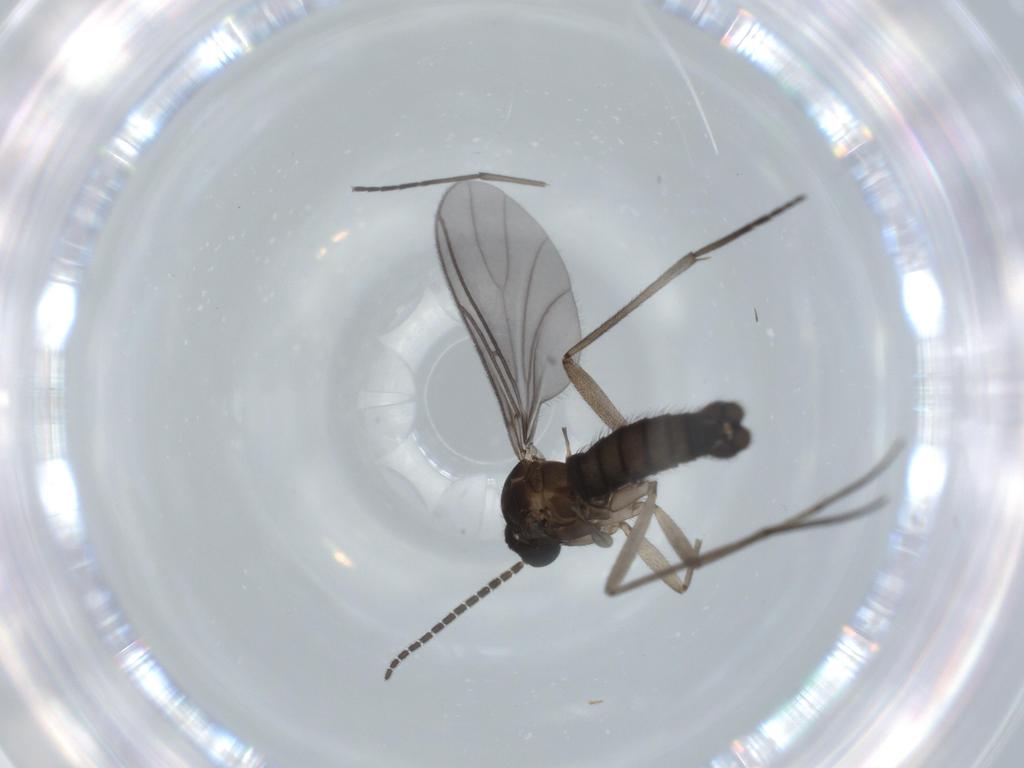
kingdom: Animalia
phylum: Arthropoda
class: Insecta
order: Diptera
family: Sciaridae
